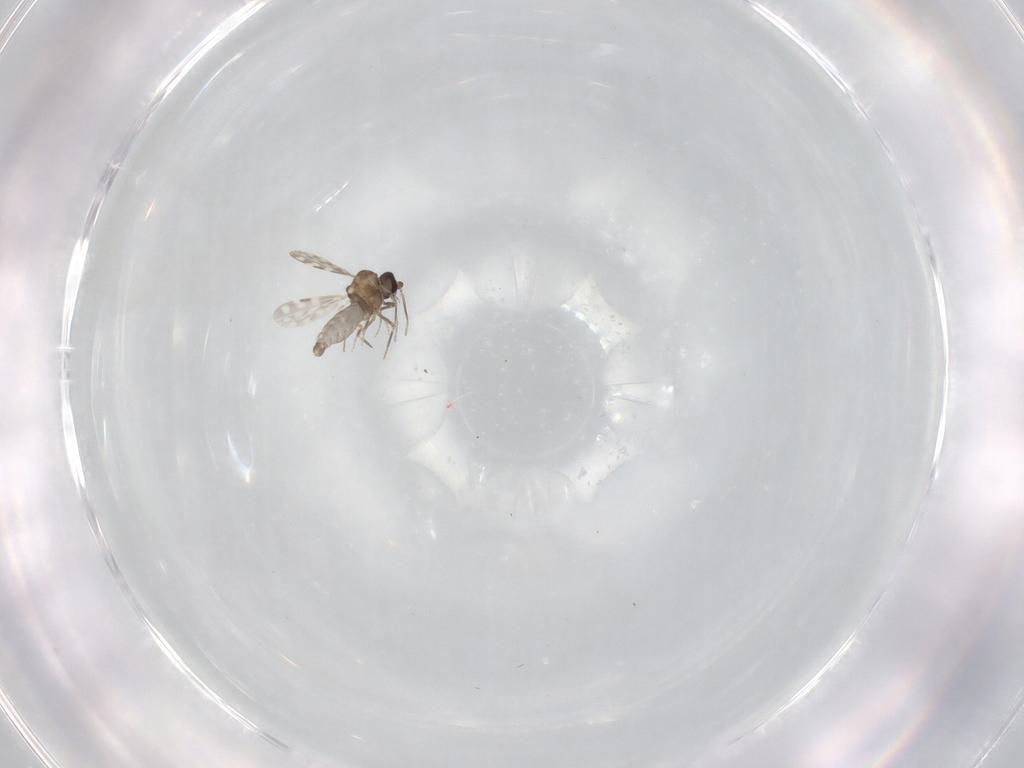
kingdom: Animalia
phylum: Arthropoda
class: Insecta
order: Diptera
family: Ceratopogonidae
